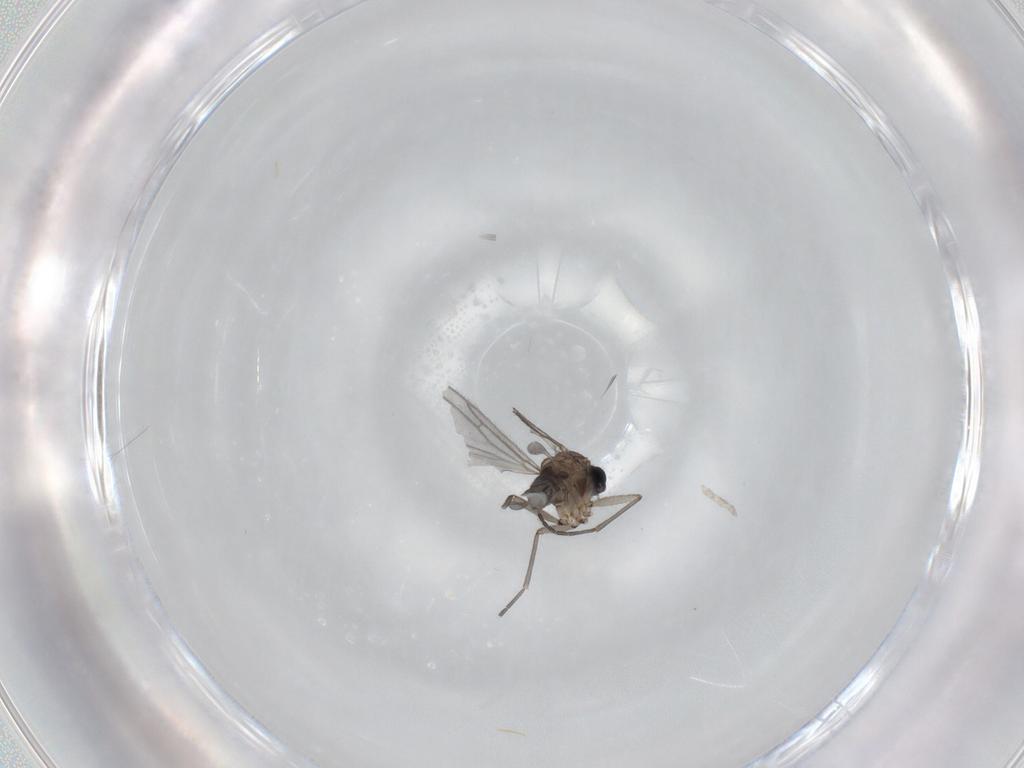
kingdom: Animalia
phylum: Arthropoda
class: Insecta
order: Diptera
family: Sciaridae
